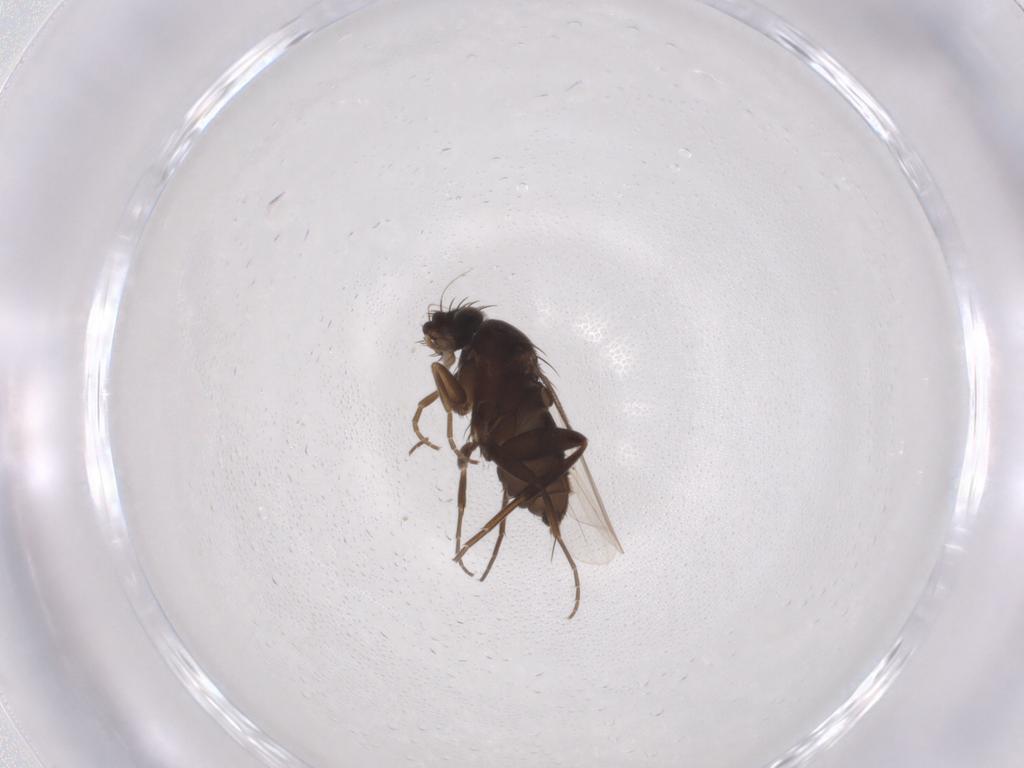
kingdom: Animalia
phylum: Arthropoda
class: Insecta
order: Diptera
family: Phoridae
